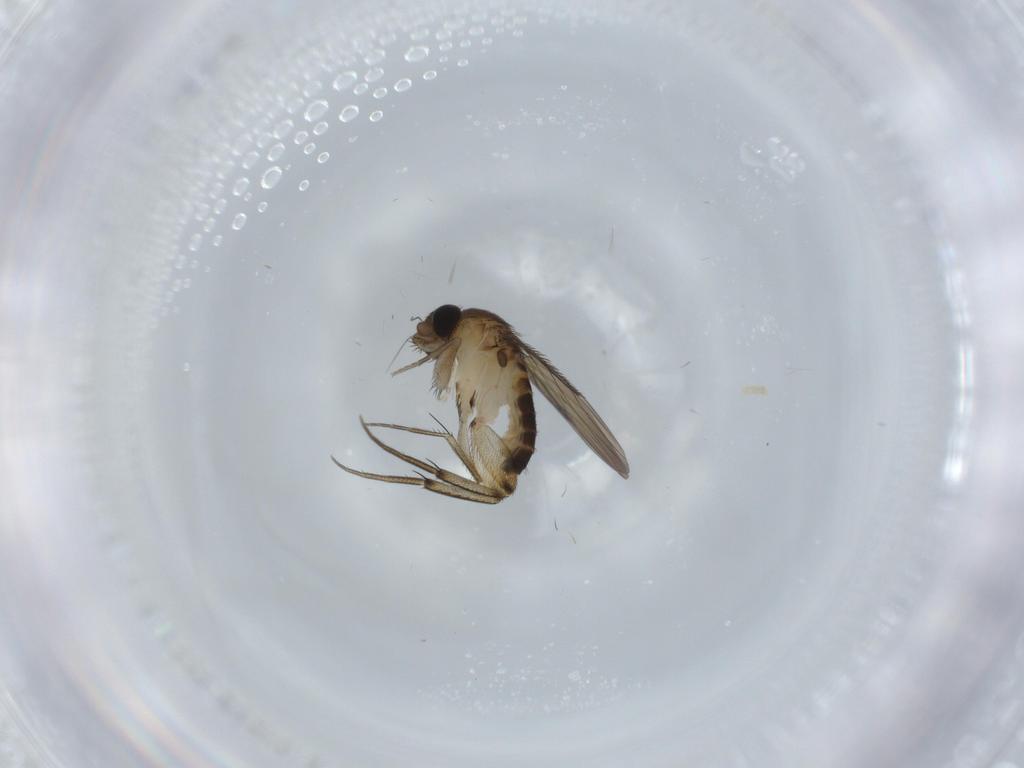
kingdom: Animalia
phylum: Arthropoda
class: Insecta
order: Diptera
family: Phoridae
